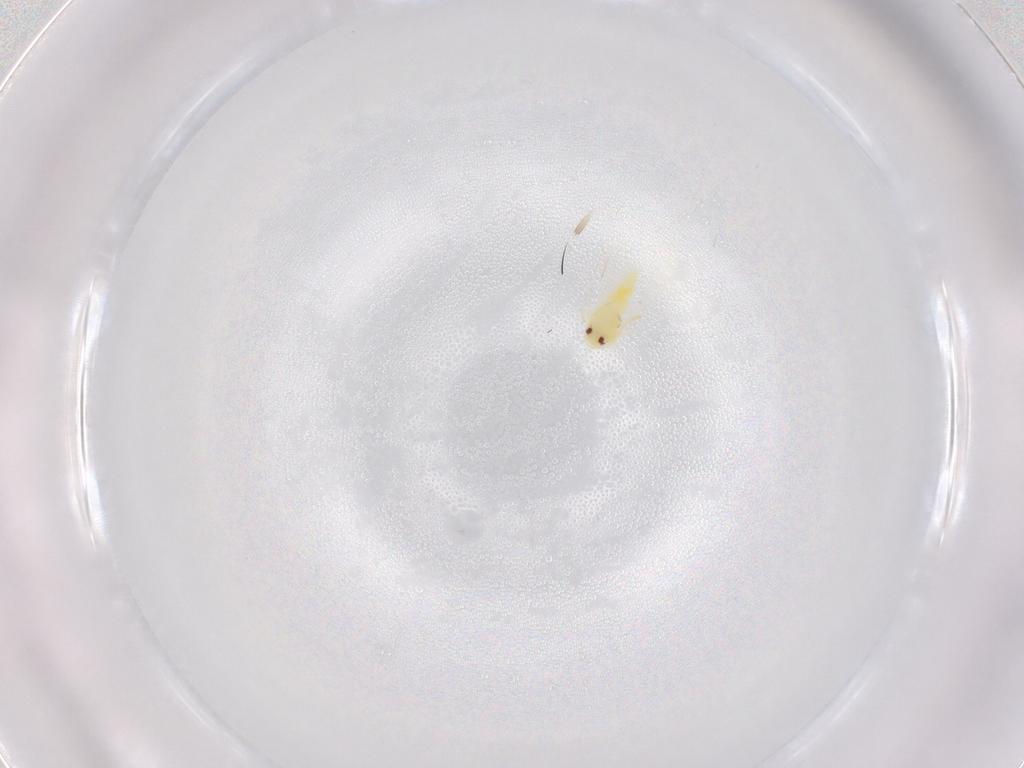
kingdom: Animalia
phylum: Arthropoda
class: Insecta
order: Hemiptera
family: Aleyrodidae
